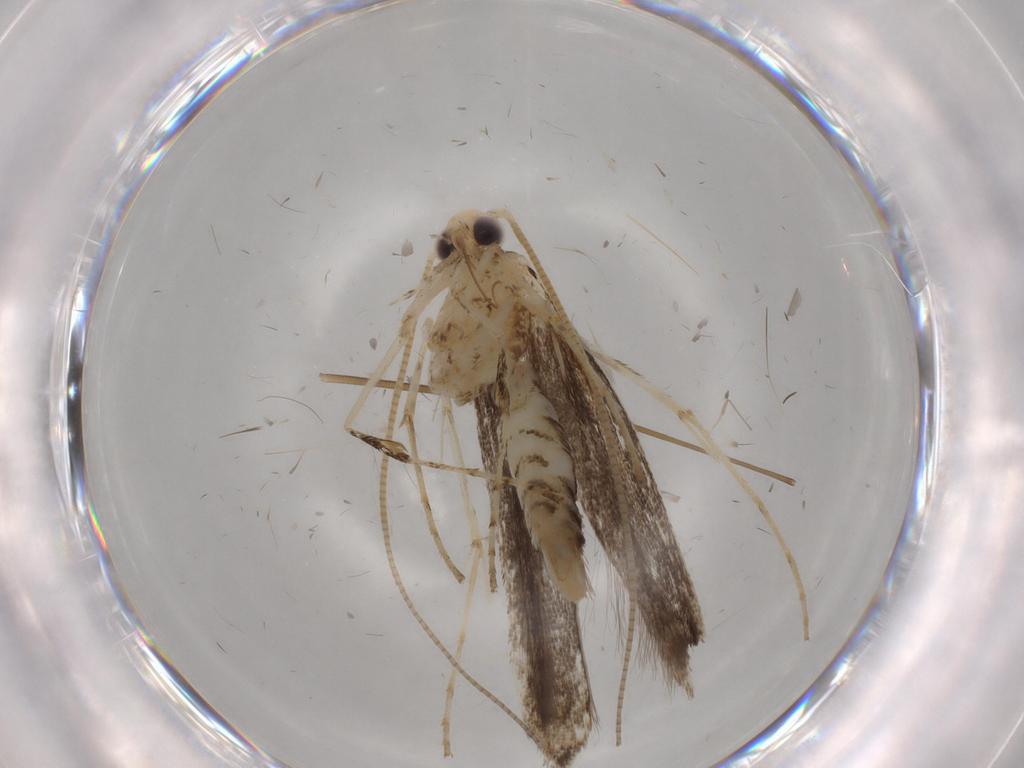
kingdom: Animalia
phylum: Arthropoda
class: Insecta
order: Lepidoptera
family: Gracillariidae
